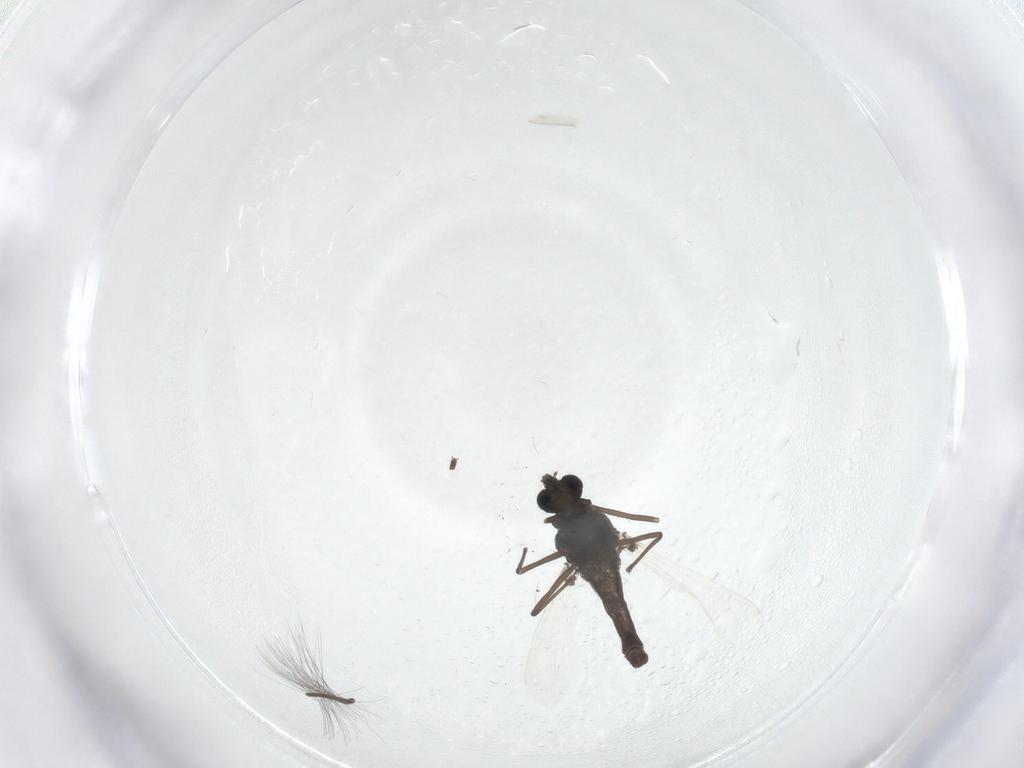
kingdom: Animalia
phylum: Arthropoda
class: Insecta
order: Diptera
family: Chironomidae
